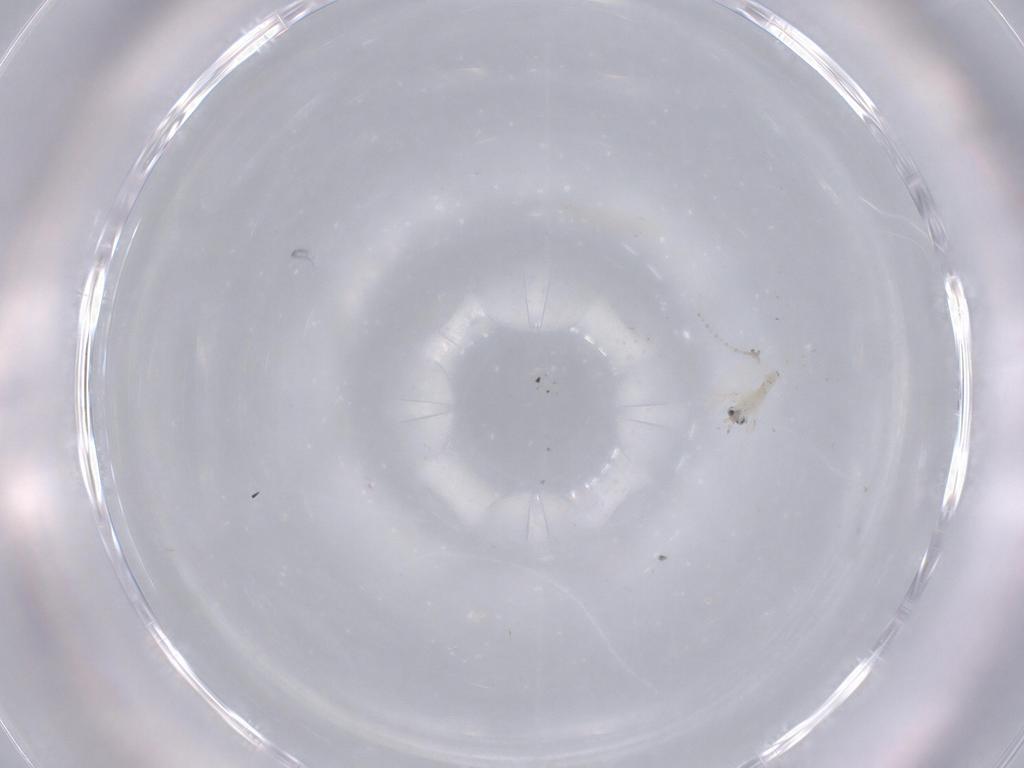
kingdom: Animalia
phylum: Arthropoda
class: Insecta
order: Diptera
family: Cecidomyiidae
